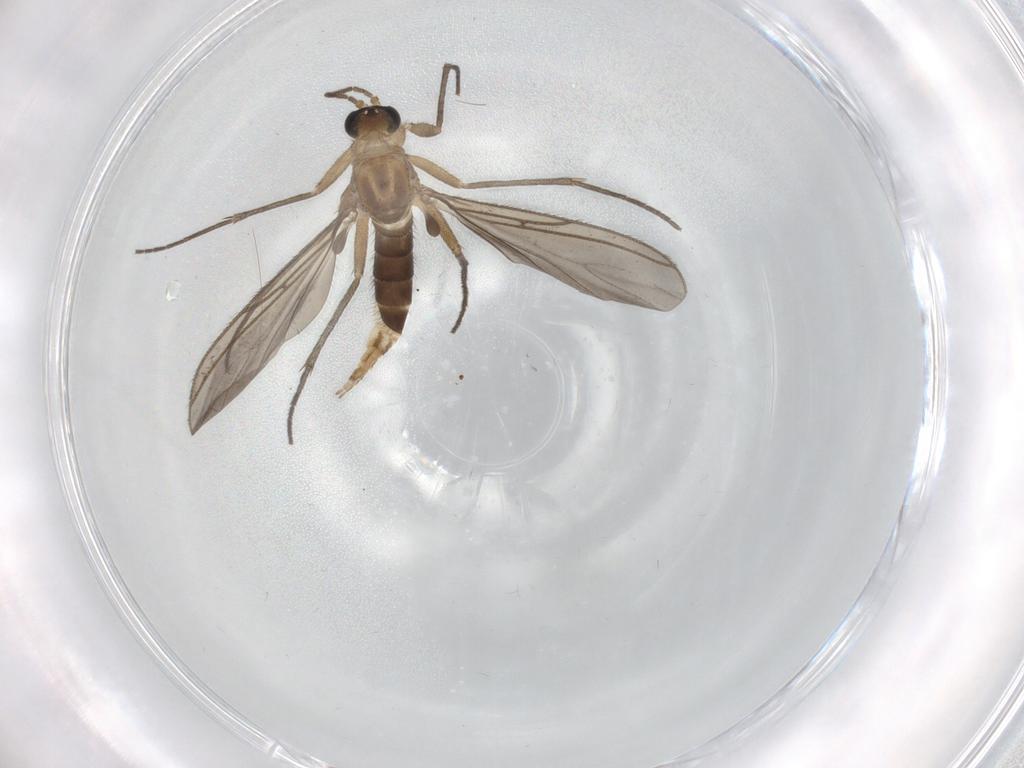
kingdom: Animalia
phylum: Arthropoda
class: Insecta
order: Diptera
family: Sciaridae
